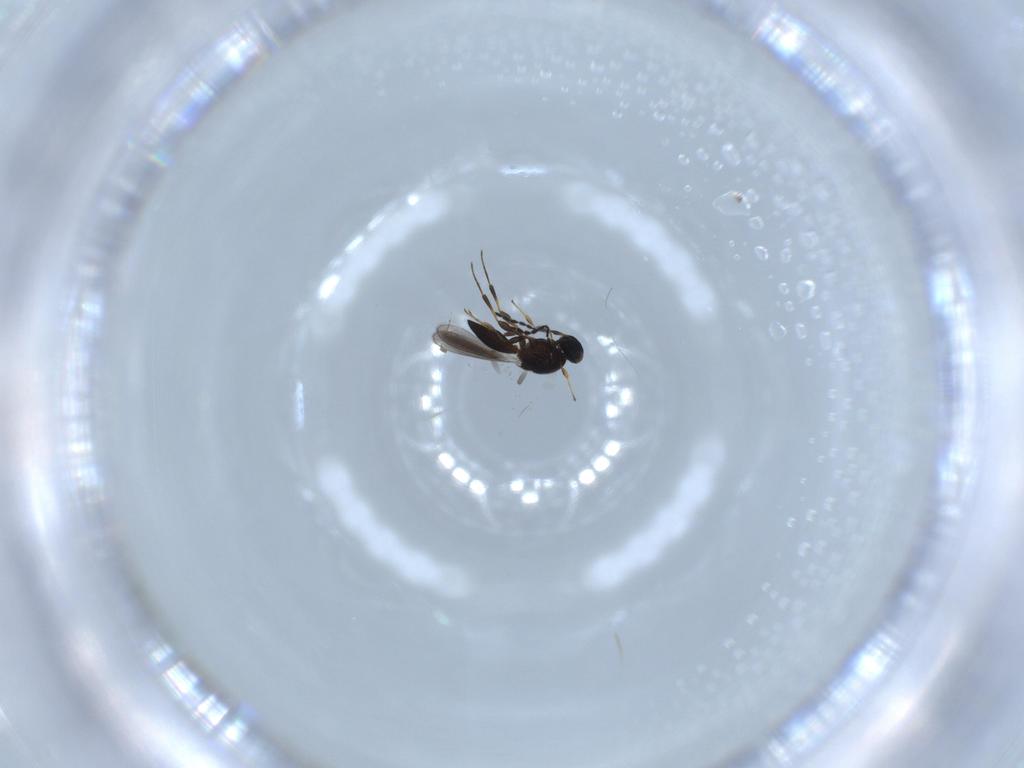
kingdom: Animalia
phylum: Arthropoda
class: Insecta
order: Hymenoptera
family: Platygastridae
